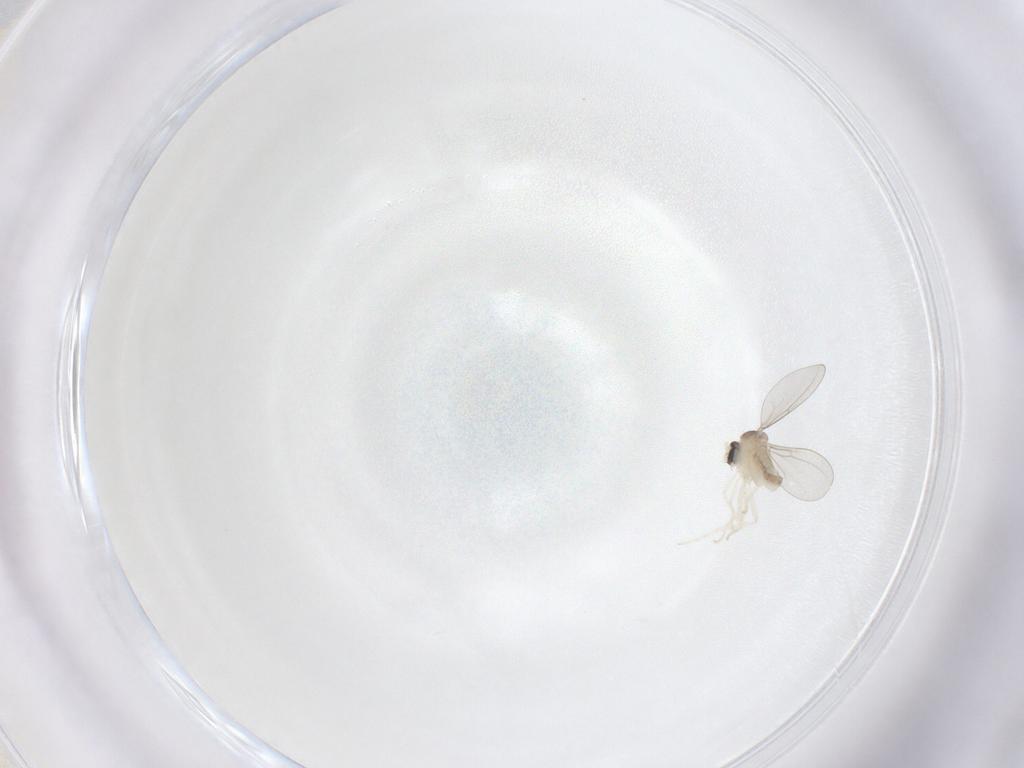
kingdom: Animalia
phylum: Arthropoda
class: Insecta
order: Diptera
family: Cecidomyiidae
